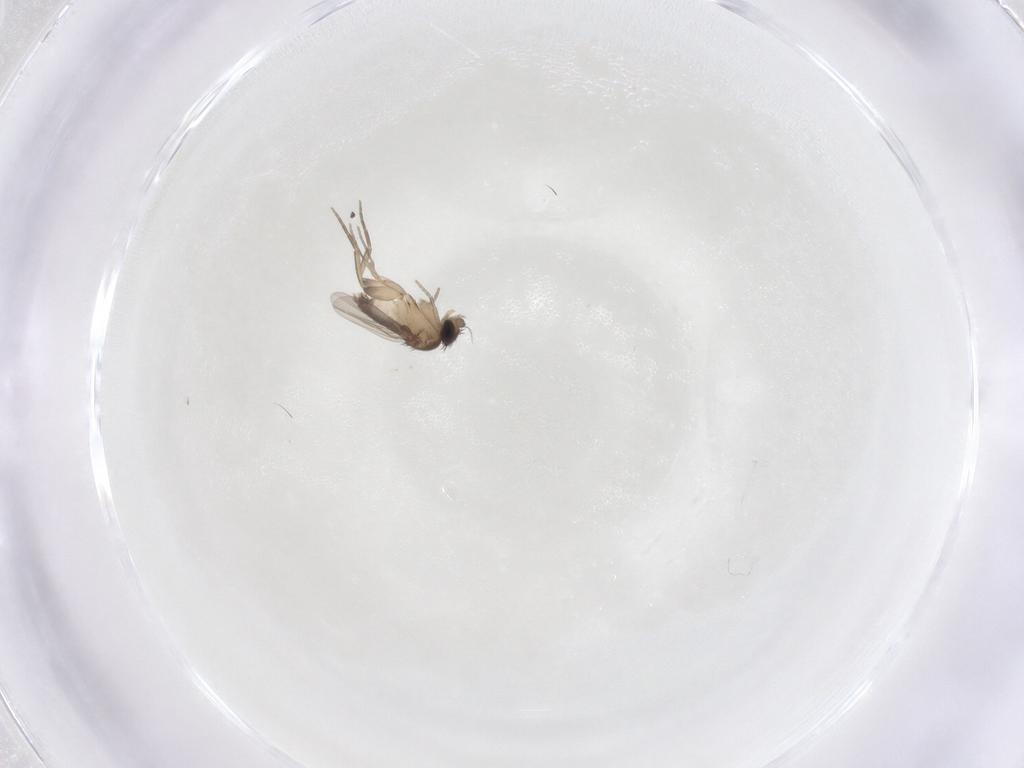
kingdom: Animalia
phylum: Arthropoda
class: Insecta
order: Diptera
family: Phoridae
